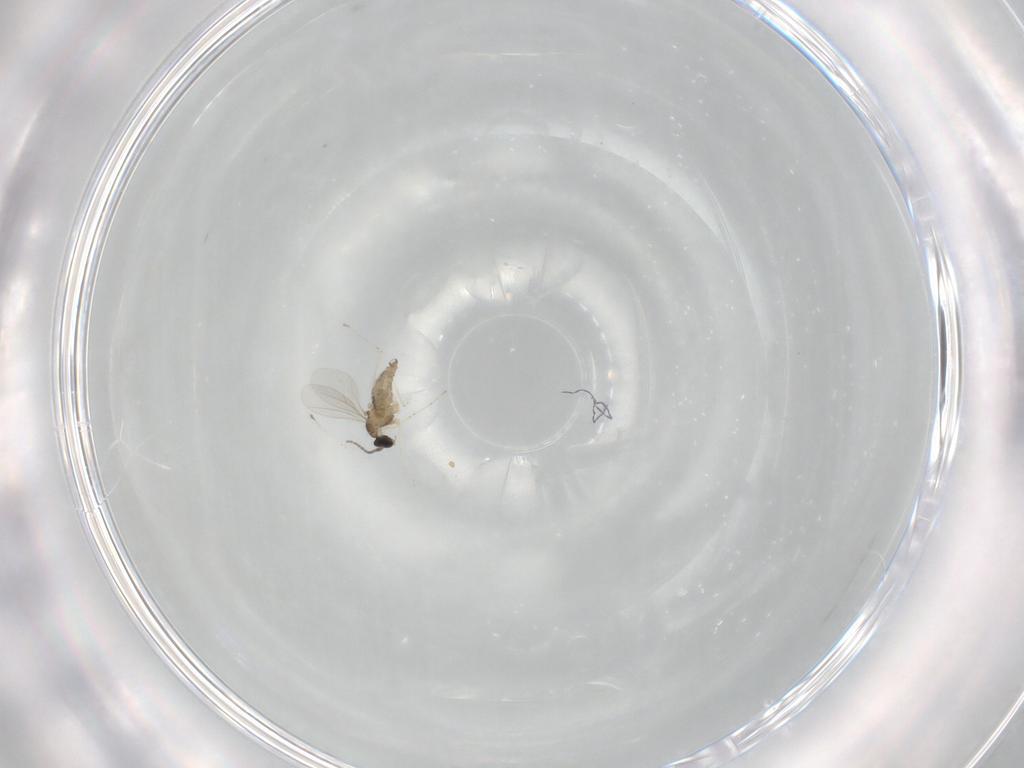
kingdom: Animalia
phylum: Arthropoda
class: Insecta
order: Diptera
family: Cecidomyiidae
